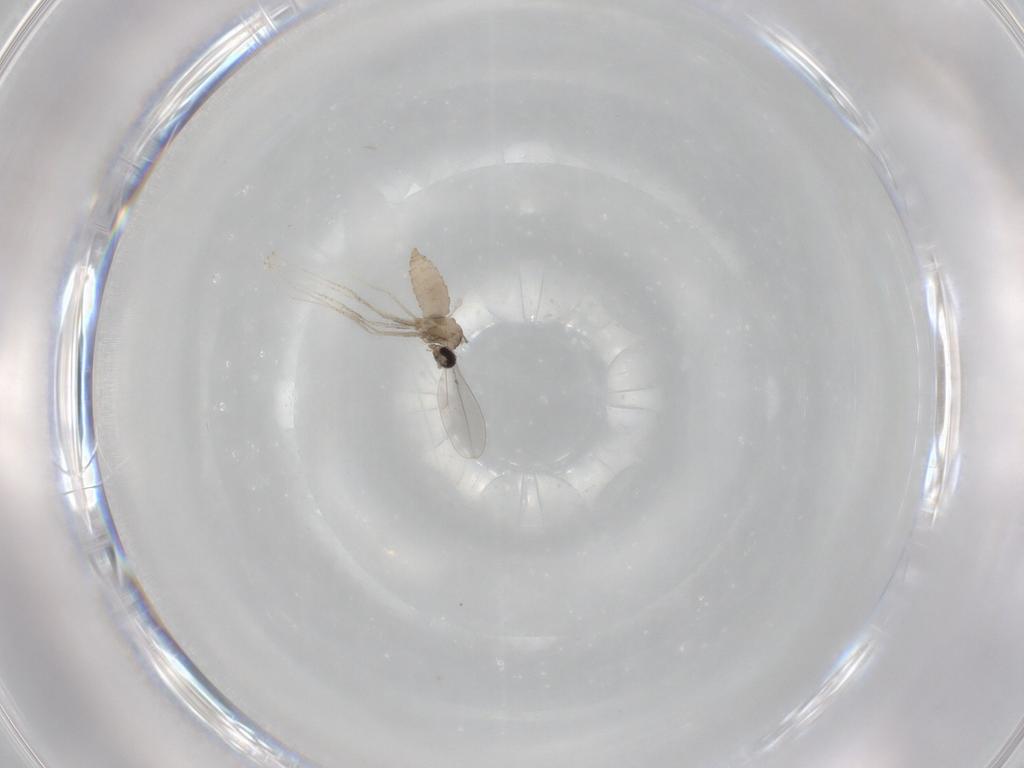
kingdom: Animalia
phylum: Arthropoda
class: Insecta
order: Diptera
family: Cecidomyiidae
